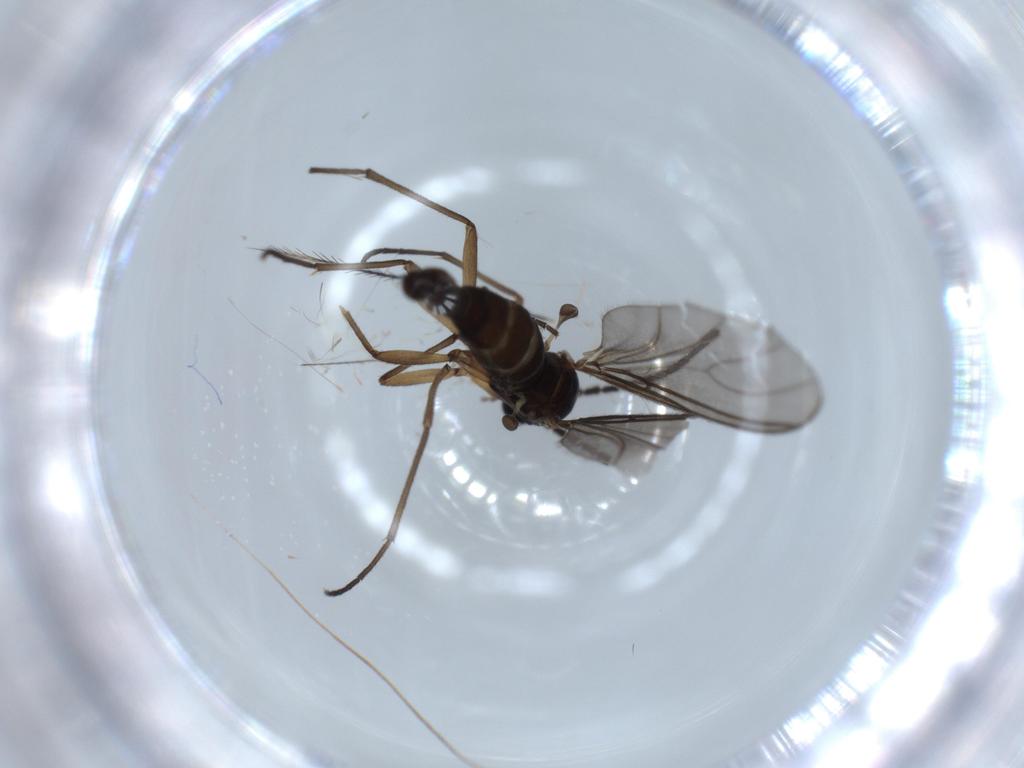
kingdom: Animalia
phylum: Arthropoda
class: Insecta
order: Diptera
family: Sciaridae
